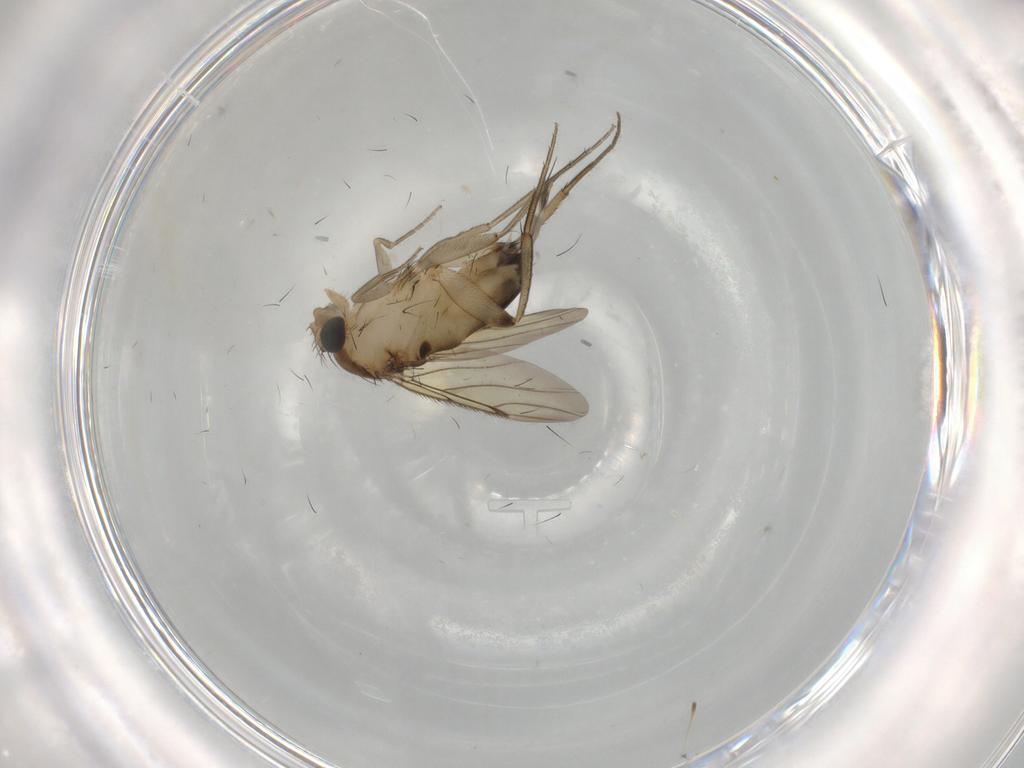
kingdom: Animalia
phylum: Arthropoda
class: Insecta
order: Diptera
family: Phoridae
